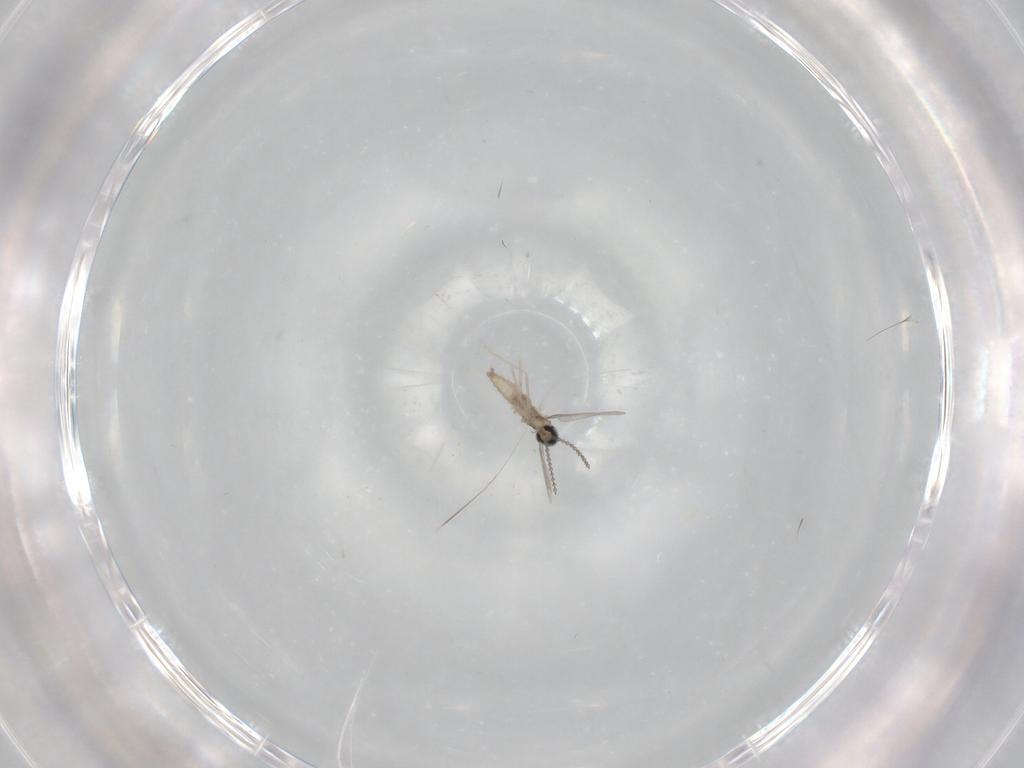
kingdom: Animalia
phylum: Arthropoda
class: Insecta
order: Diptera
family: Cecidomyiidae
